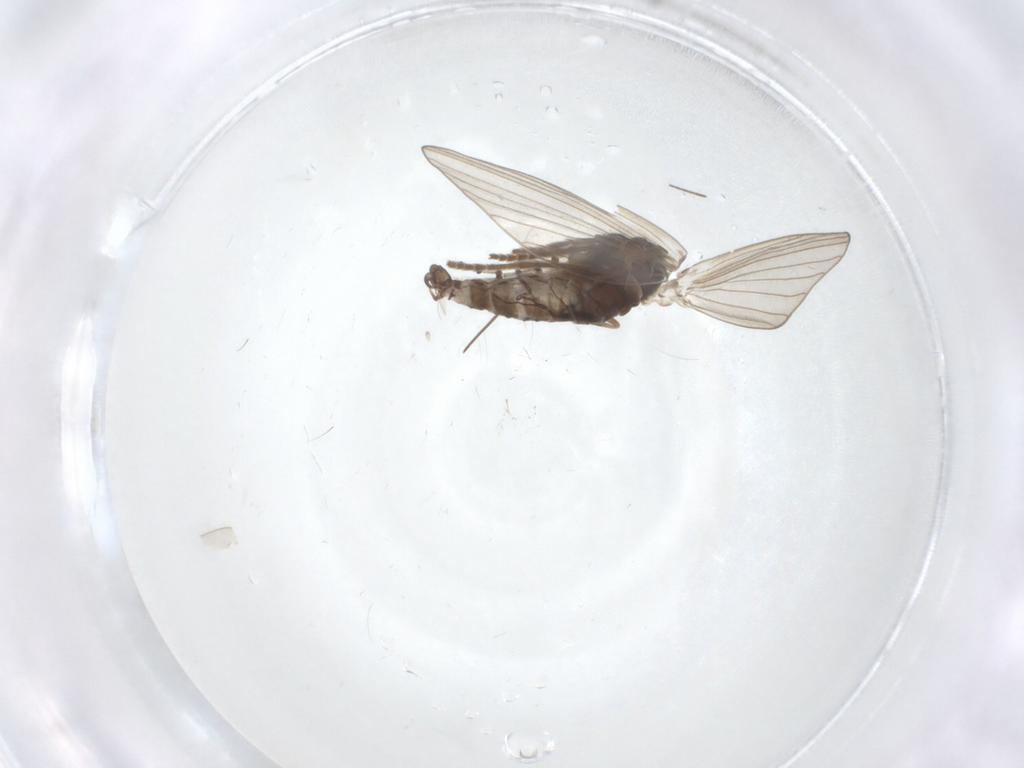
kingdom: Animalia
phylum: Arthropoda
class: Insecta
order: Diptera
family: Psychodidae
